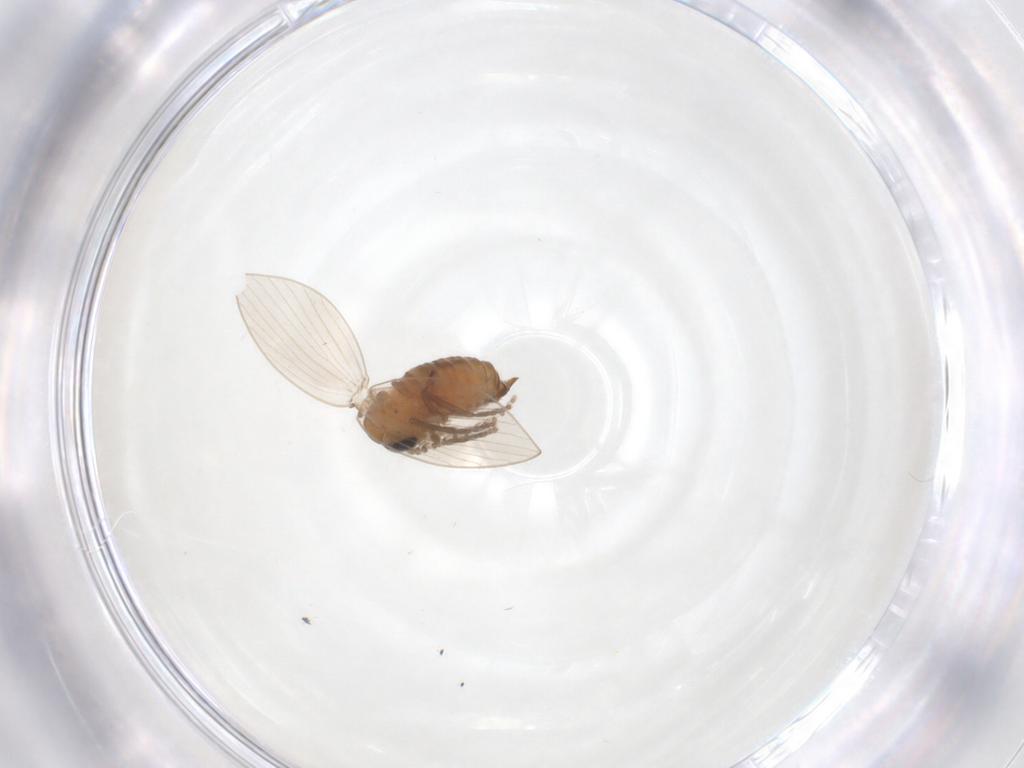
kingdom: Animalia
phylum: Arthropoda
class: Insecta
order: Diptera
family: Psychodidae
